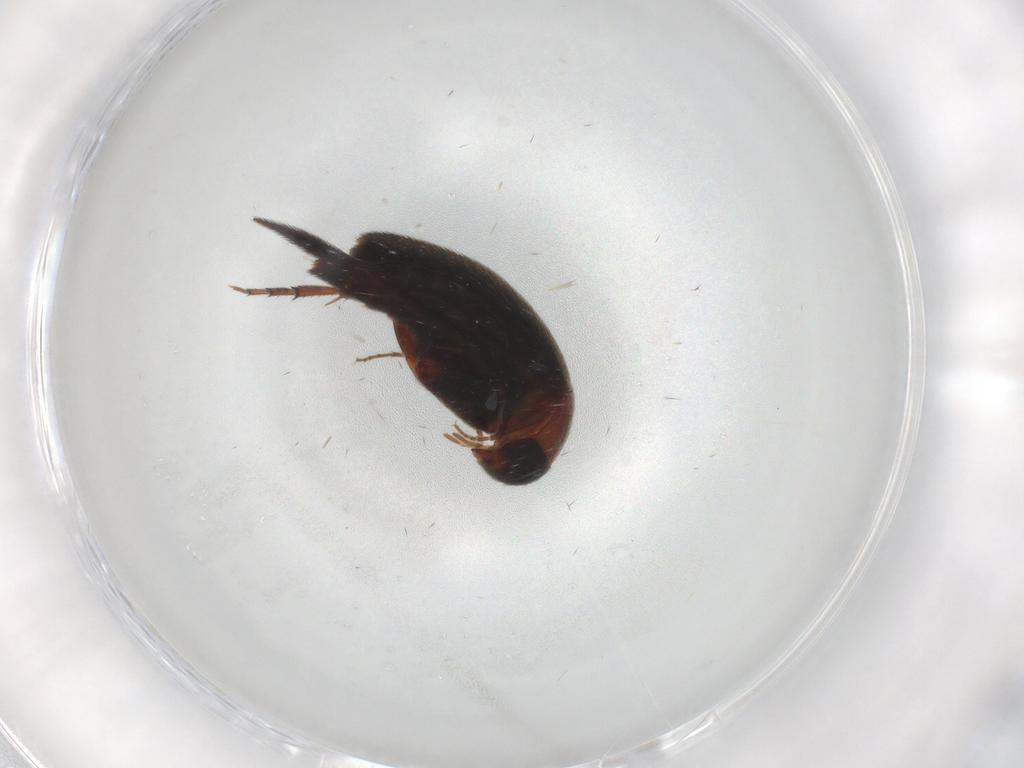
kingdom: Animalia
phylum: Arthropoda
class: Insecta
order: Coleoptera
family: Mordellidae
